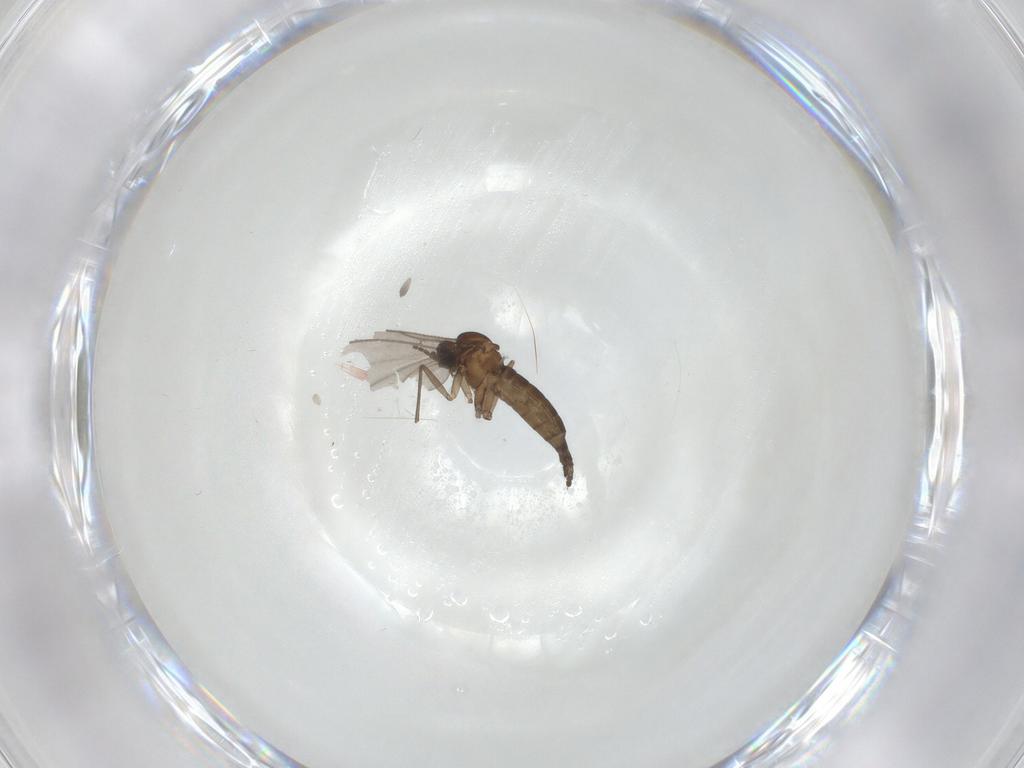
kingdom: Animalia
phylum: Arthropoda
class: Insecta
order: Diptera
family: Sciaridae
